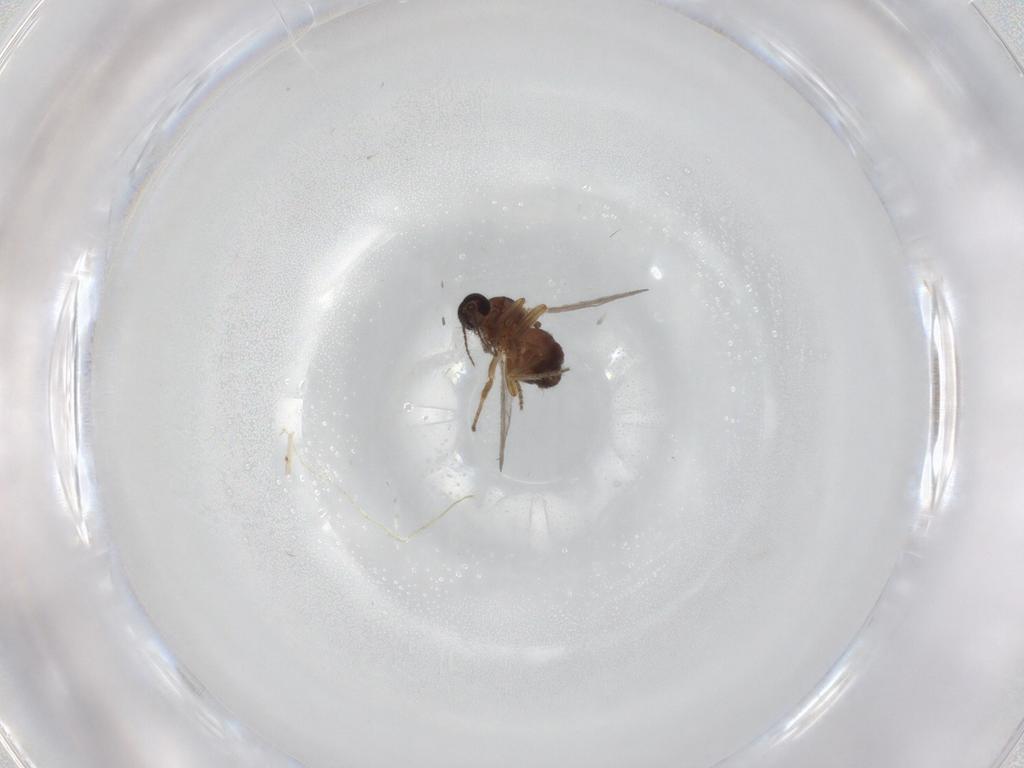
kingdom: Animalia
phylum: Arthropoda
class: Insecta
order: Diptera
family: Ceratopogonidae
